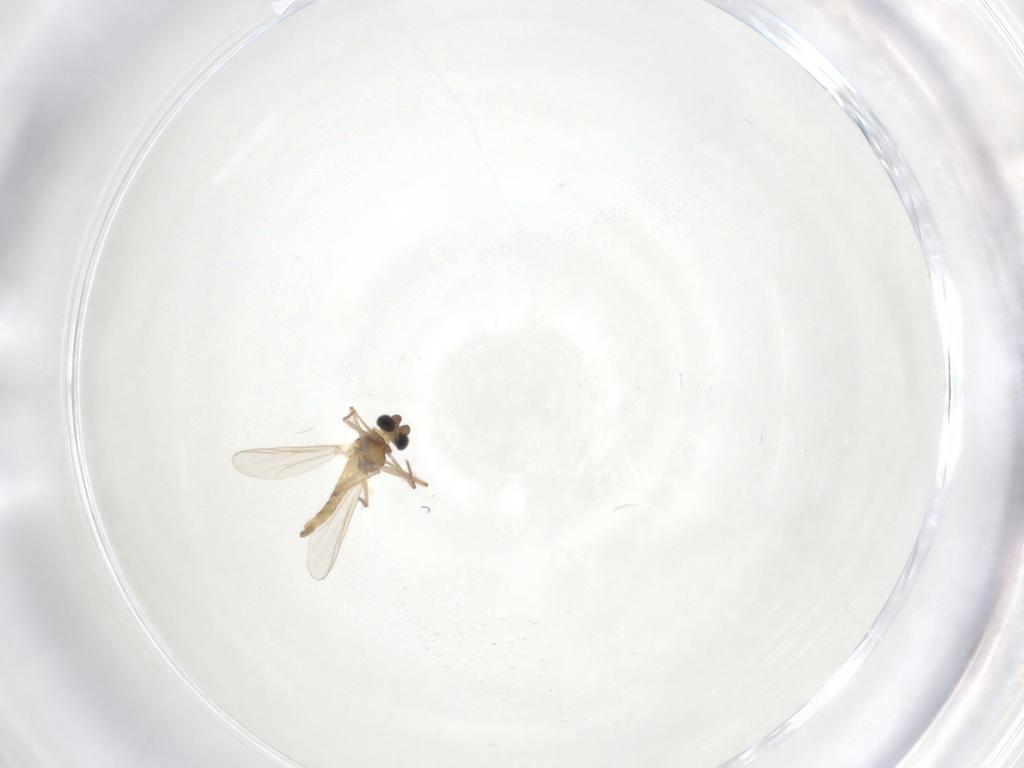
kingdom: Animalia
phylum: Arthropoda
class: Insecta
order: Diptera
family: Chironomidae
